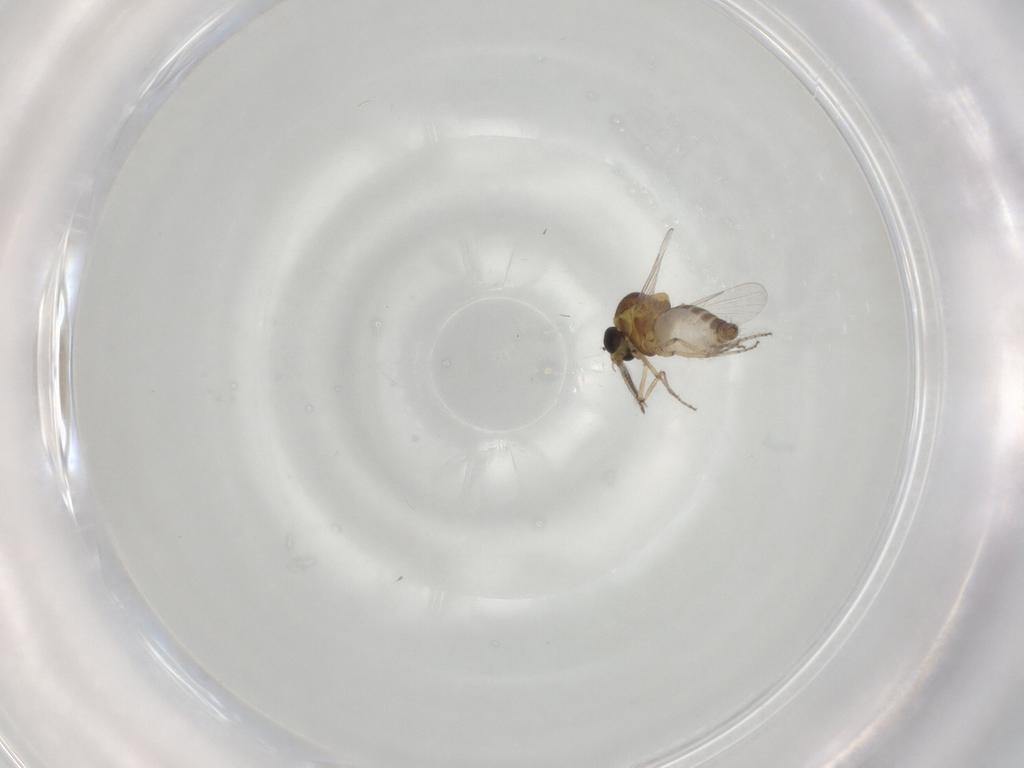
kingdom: Animalia
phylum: Arthropoda
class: Insecta
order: Diptera
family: Ceratopogonidae
